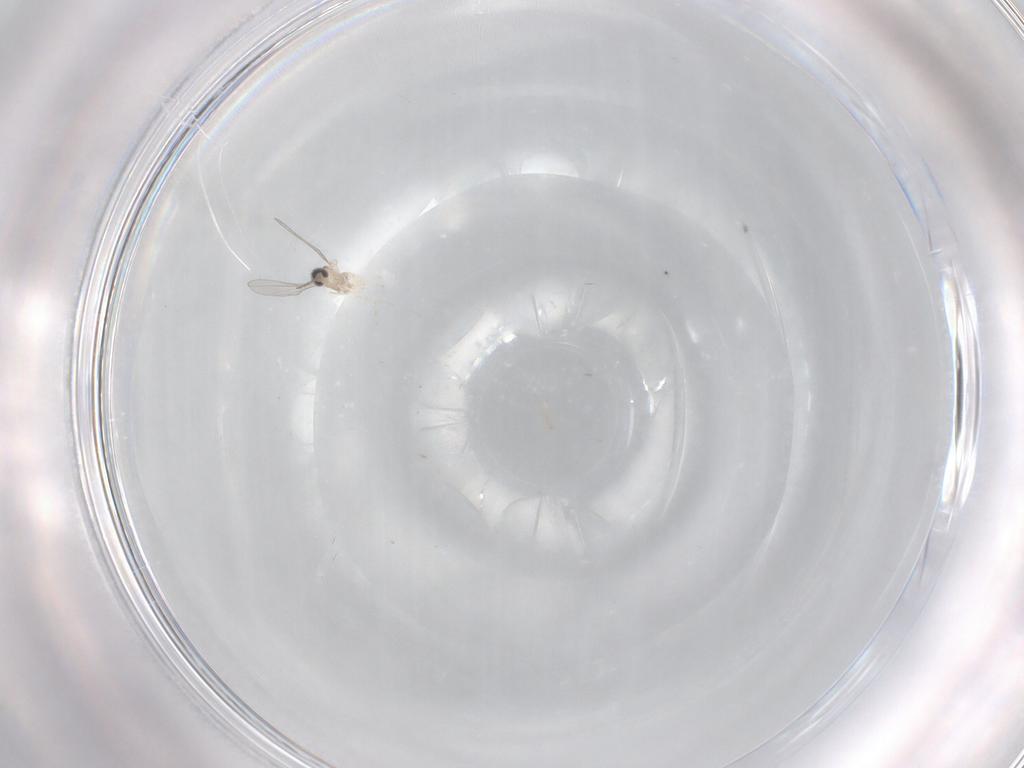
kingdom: Animalia
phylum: Arthropoda
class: Insecta
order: Diptera
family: Cecidomyiidae
